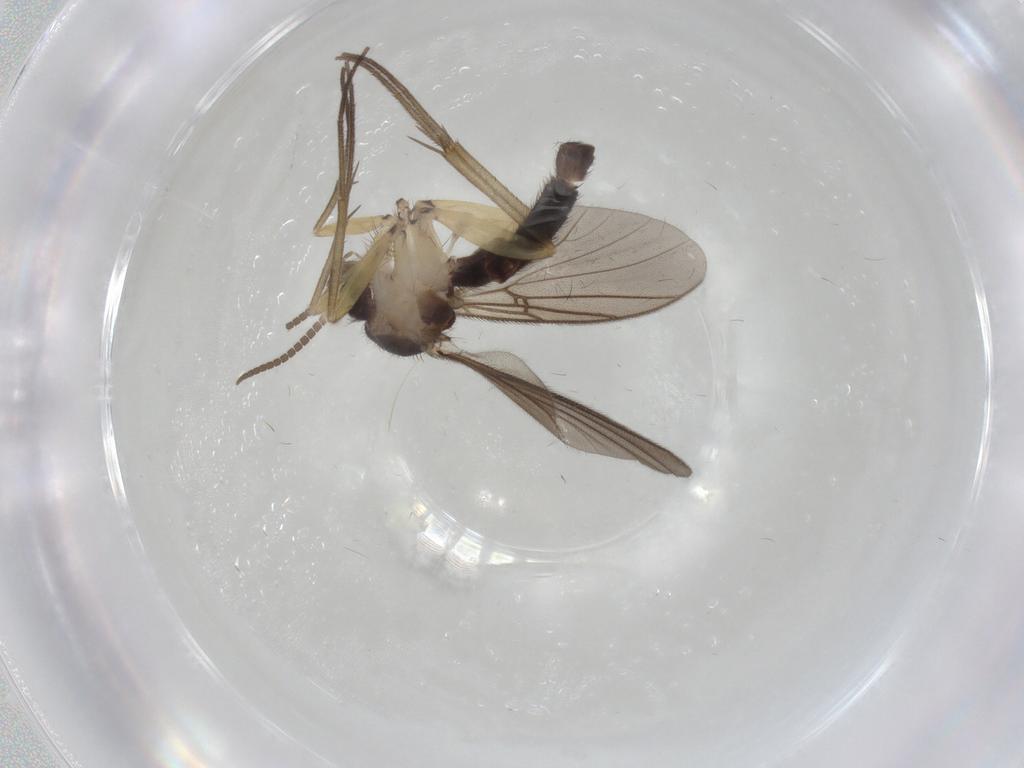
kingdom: Animalia
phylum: Arthropoda
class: Insecta
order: Diptera
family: Mycetophilidae
